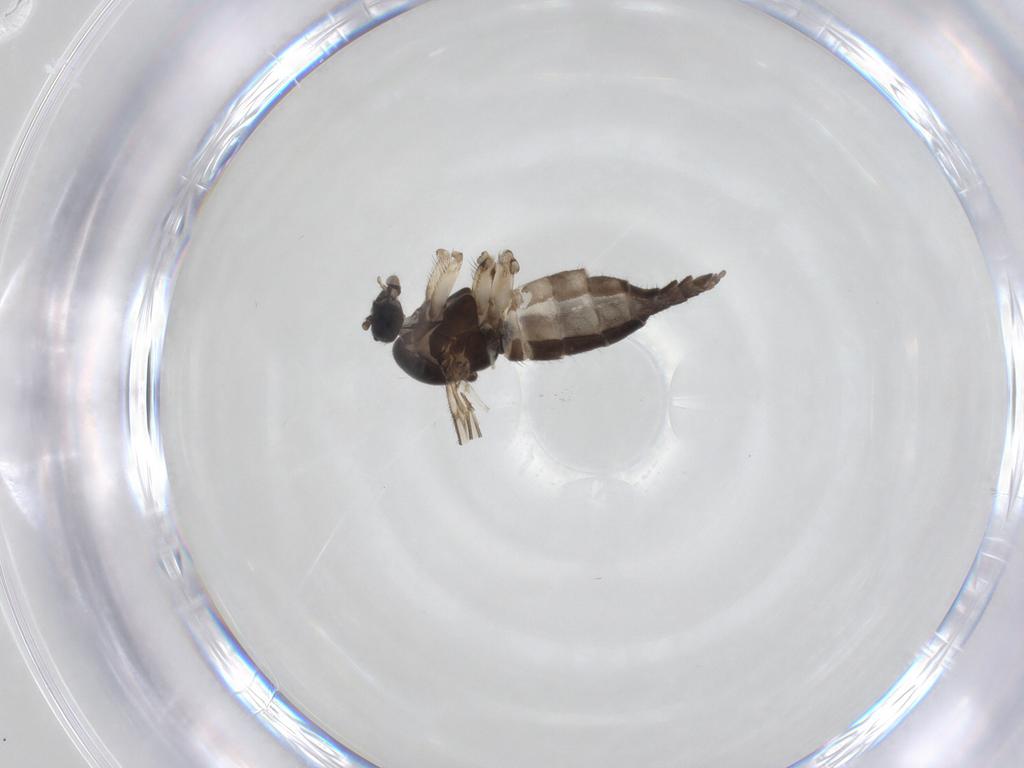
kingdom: Animalia
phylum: Arthropoda
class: Insecta
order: Diptera
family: Sciaridae
